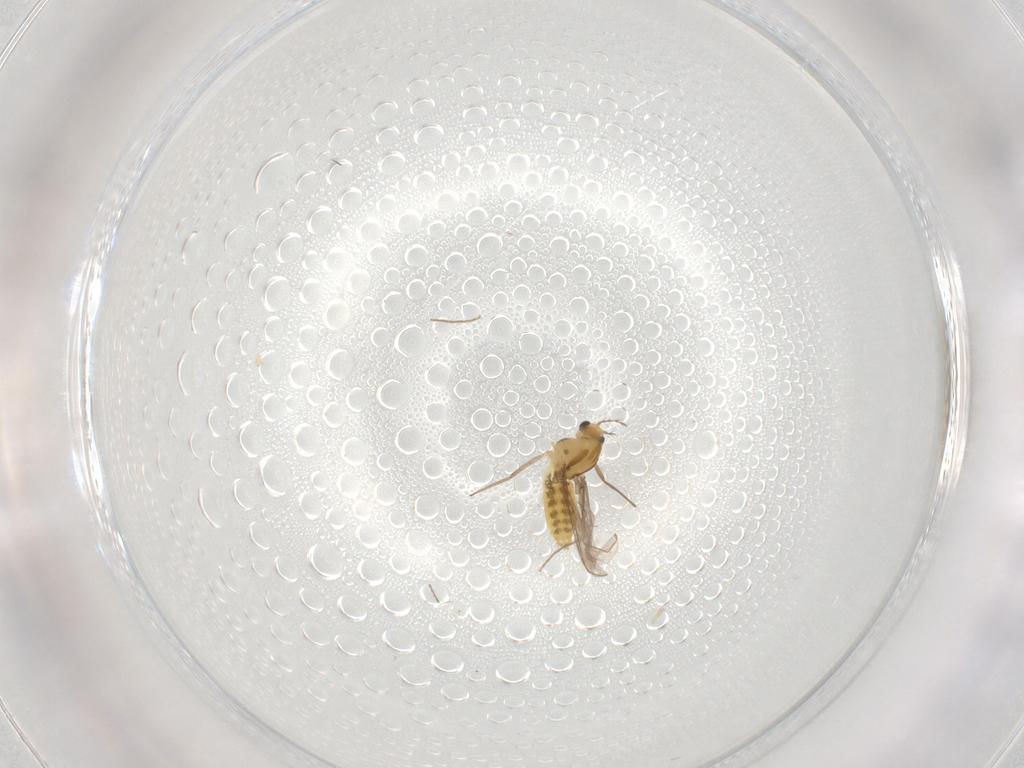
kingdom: Animalia
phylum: Arthropoda
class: Insecta
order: Diptera
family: Chironomidae
